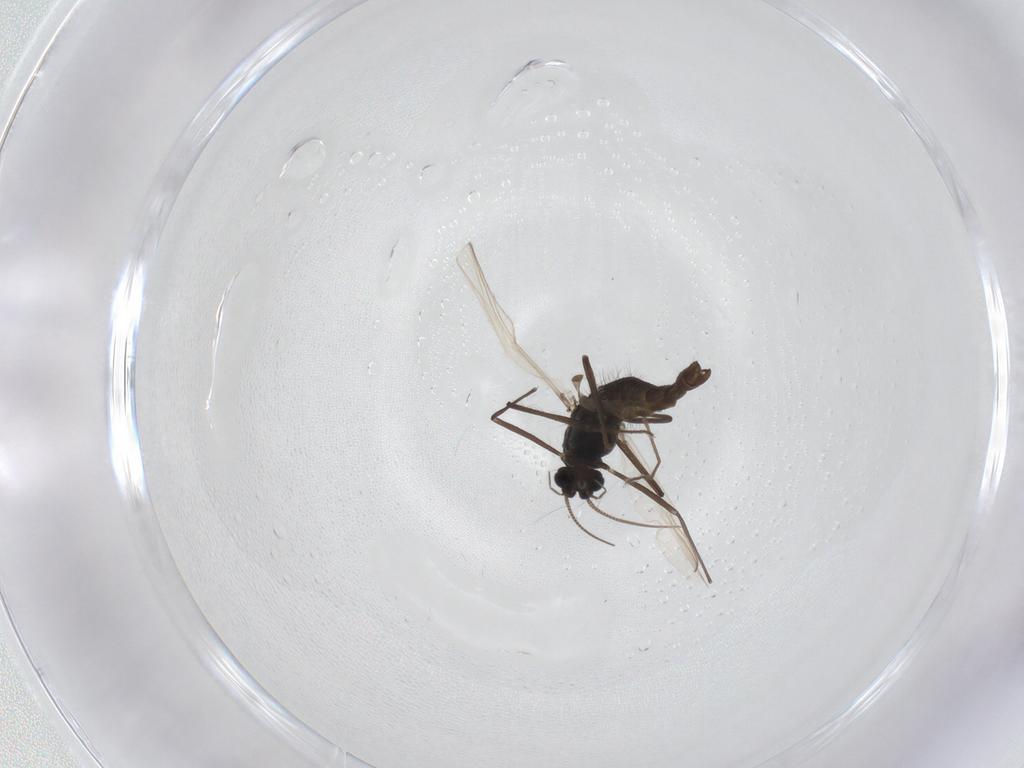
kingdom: Animalia
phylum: Arthropoda
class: Insecta
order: Diptera
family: Chironomidae
